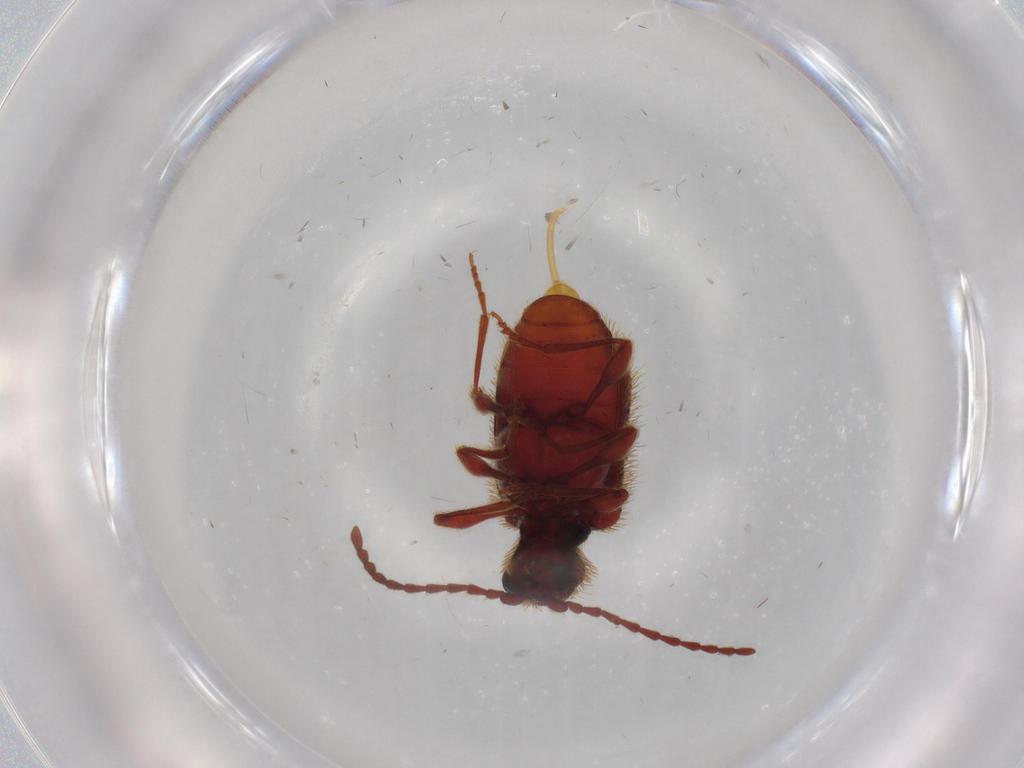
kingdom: Animalia
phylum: Arthropoda
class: Insecta
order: Coleoptera
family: Ptinidae
